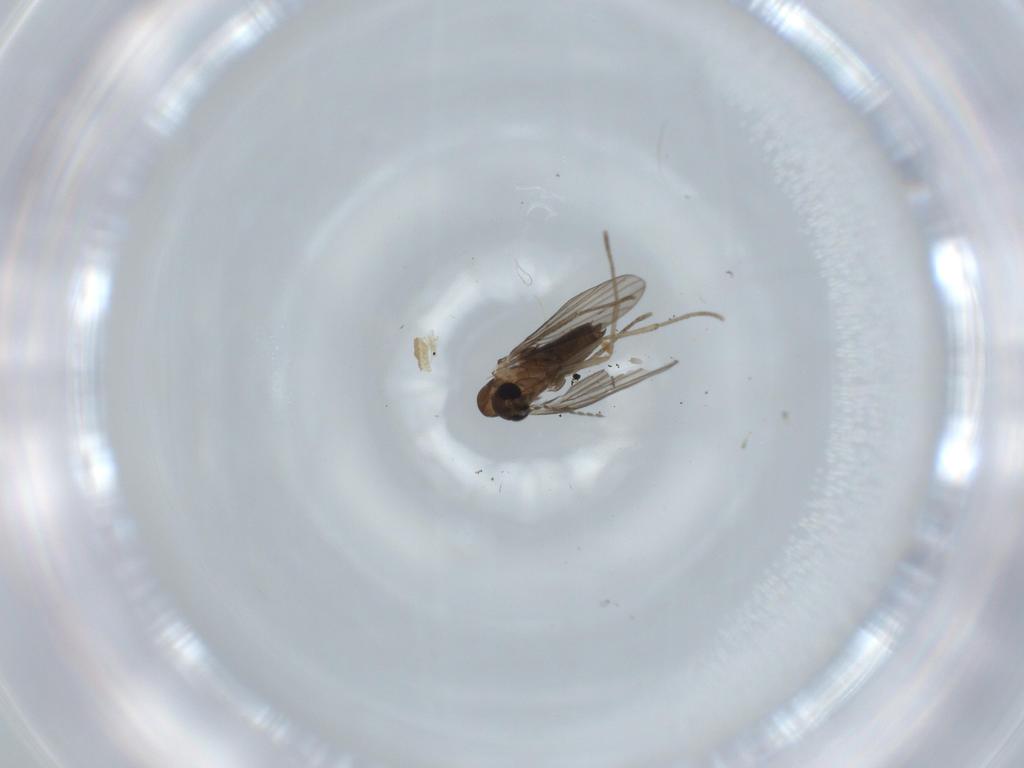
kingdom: Animalia
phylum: Arthropoda
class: Insecta
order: Diptera
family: Psychodidae
